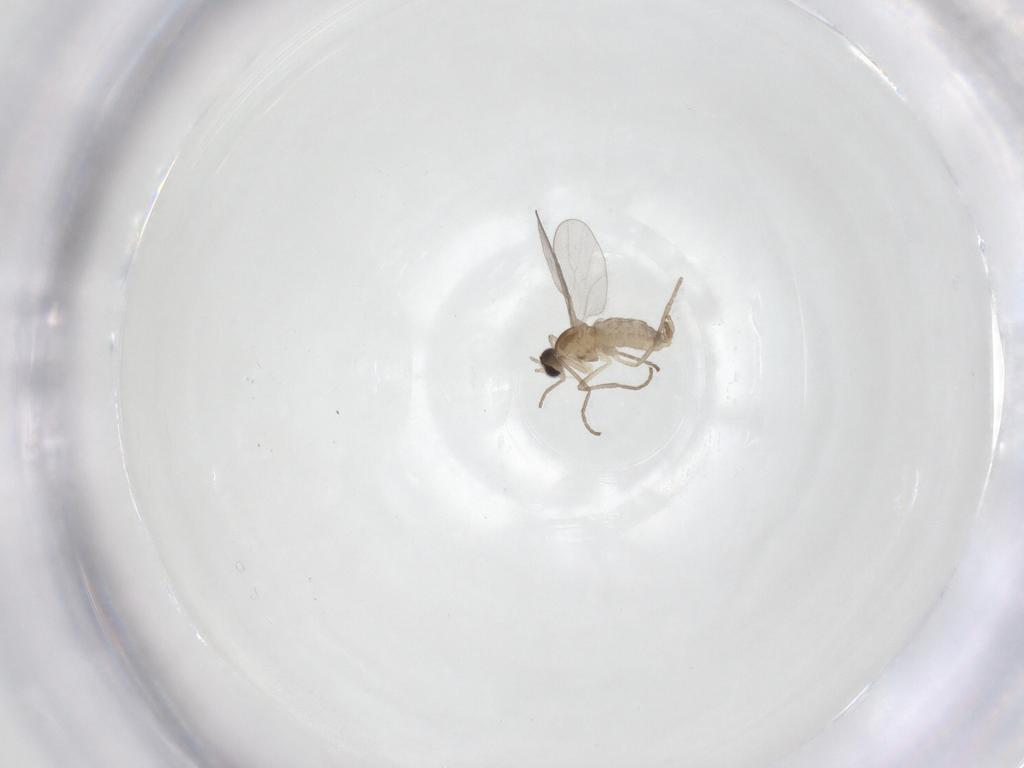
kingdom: Animalia
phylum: Arthropoda
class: Insecta
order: Diptera
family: Cecidomyiidae
